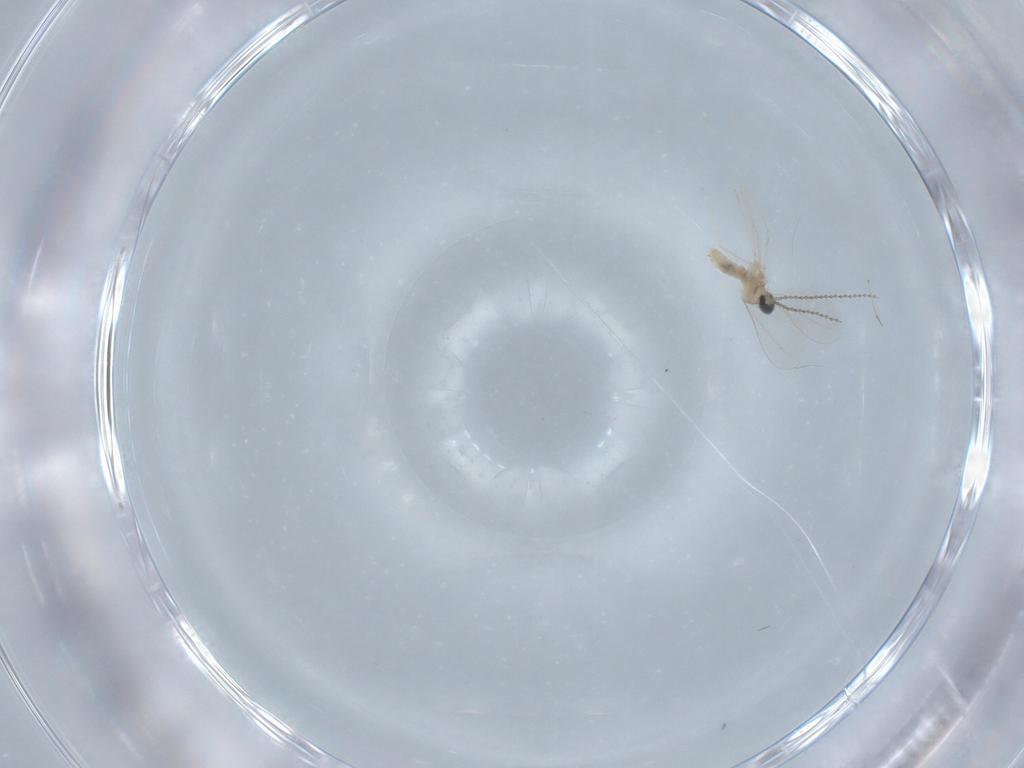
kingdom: Animalia
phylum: Arthropoda
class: Insecta
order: Diptera
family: Cecidomyiidae
